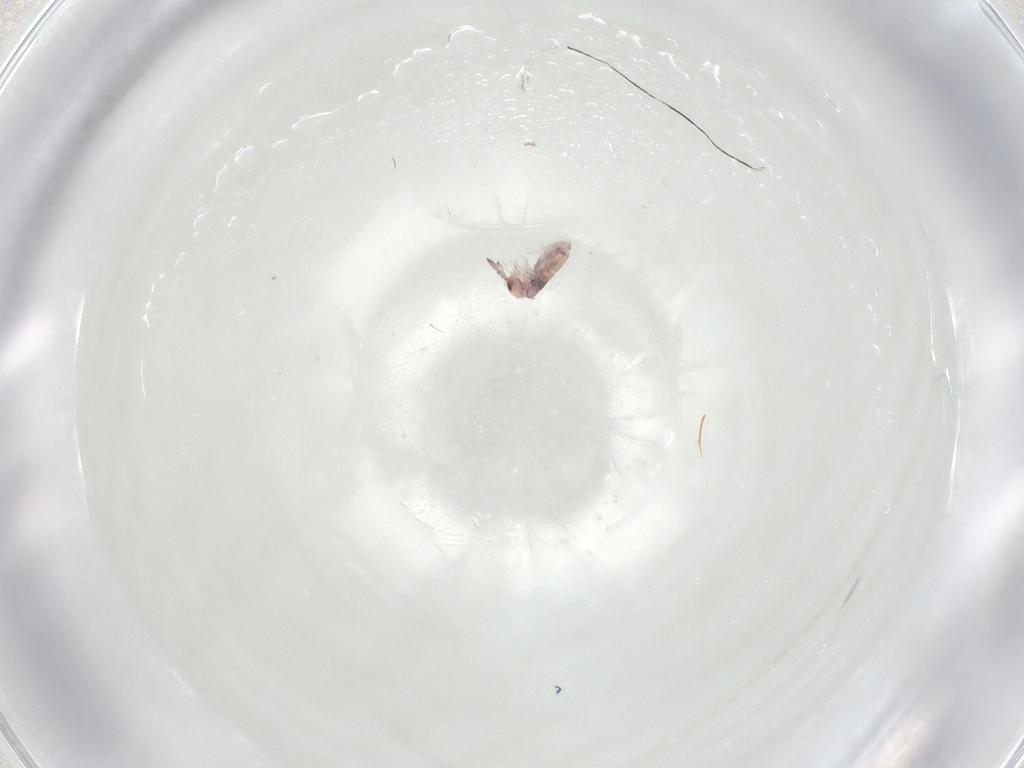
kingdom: Animalia
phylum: Arthropoda
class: Collembola
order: Entomobryomorpha
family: Entomobryidae
